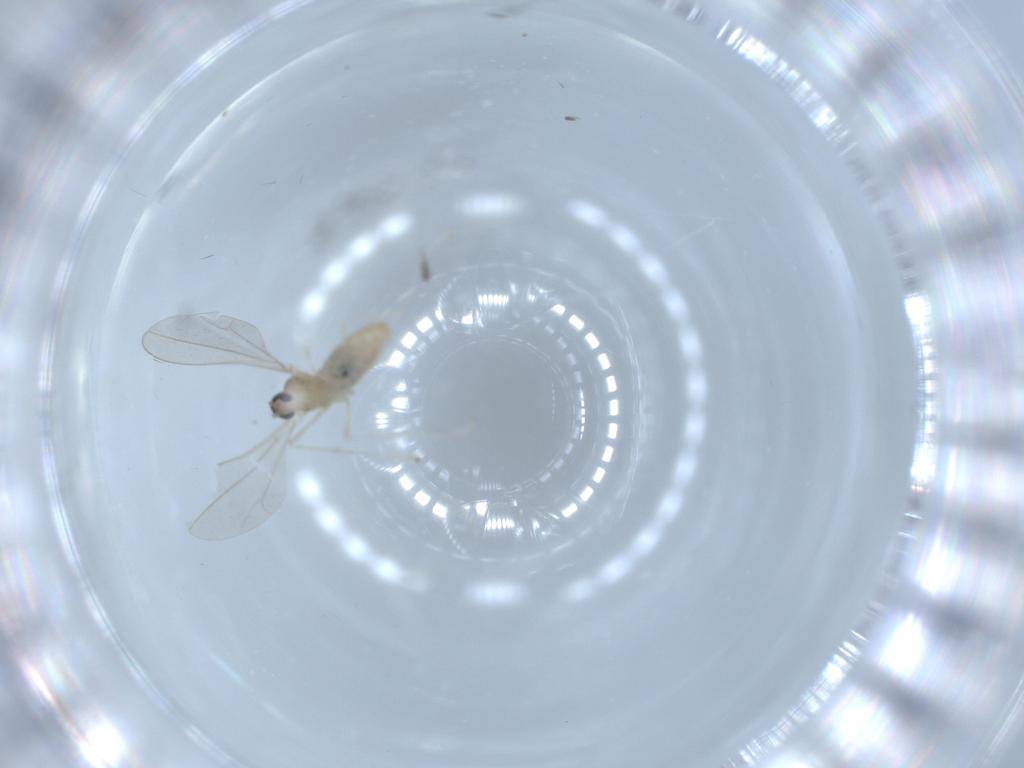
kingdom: Animalia
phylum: Arthropoda
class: Insecta
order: Diptera
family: Cecidomyiidae
